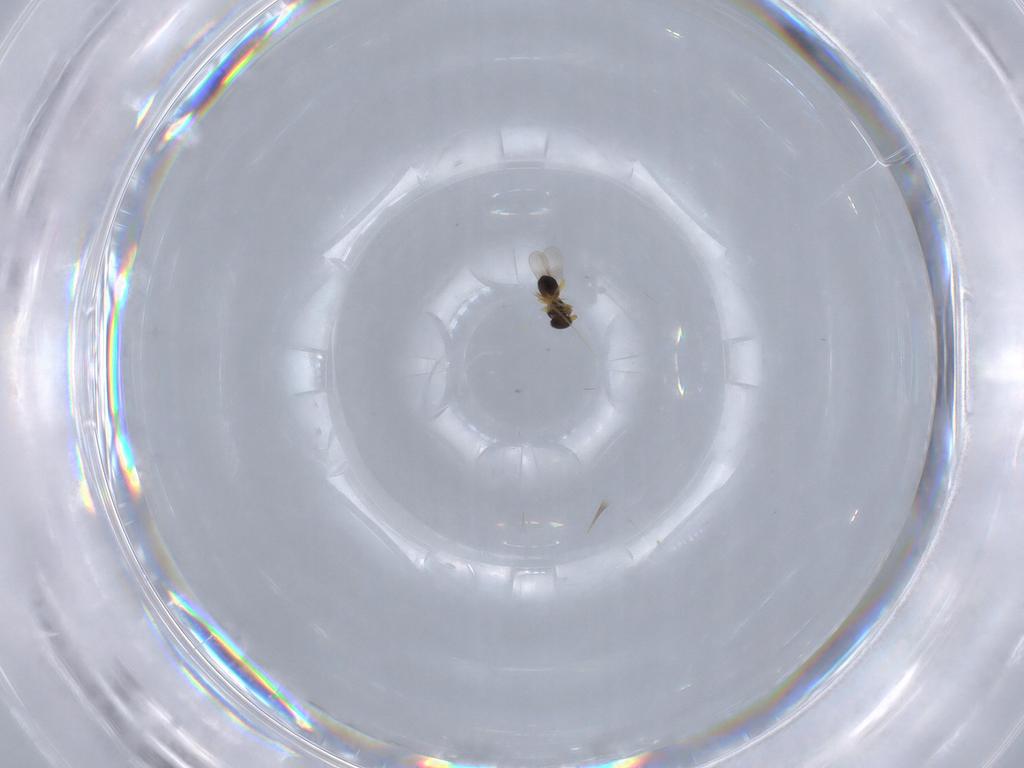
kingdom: Animalia
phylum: Arthropoda
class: Insecta
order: Hymenoptera
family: Platygastridae
